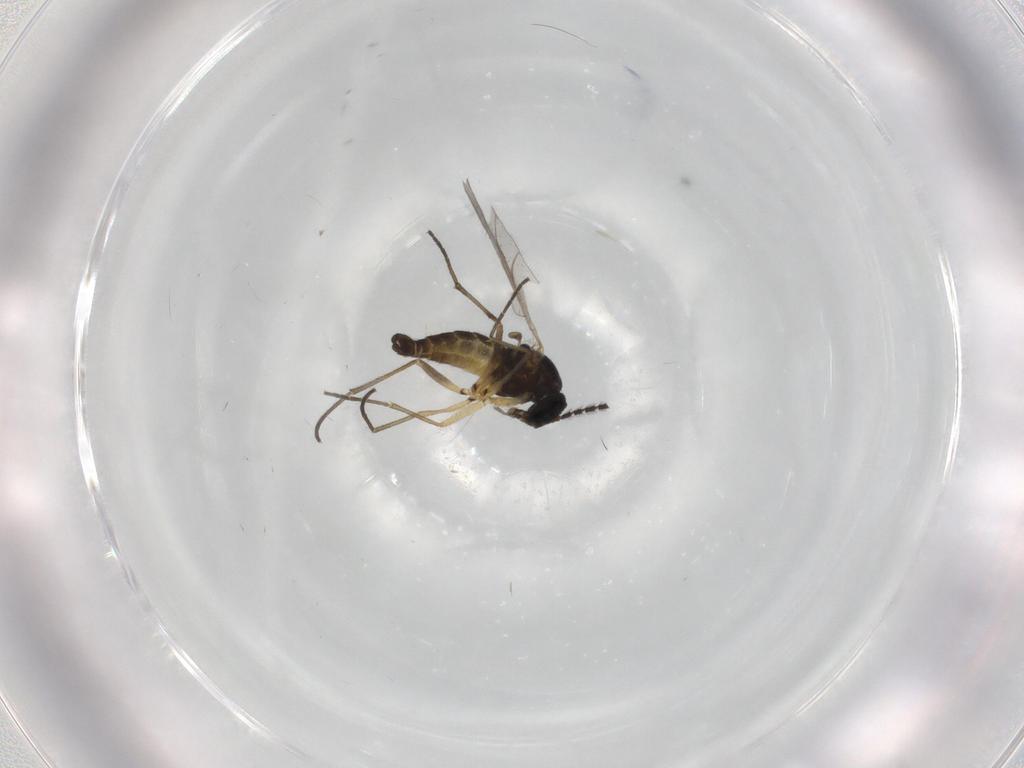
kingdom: Animalia
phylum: Arthropoda
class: Insecta
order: Diptera
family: Sciaridae
